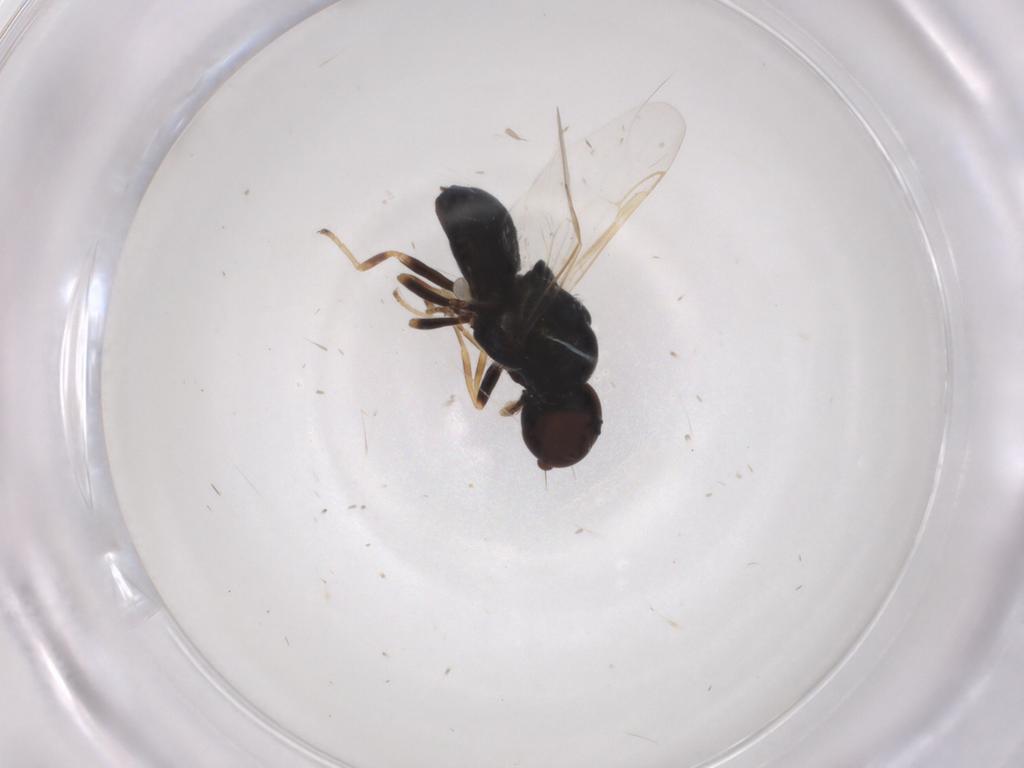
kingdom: Animalia
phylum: Arthropoda
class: Insecta
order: Diptera
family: Stratiomyidae
